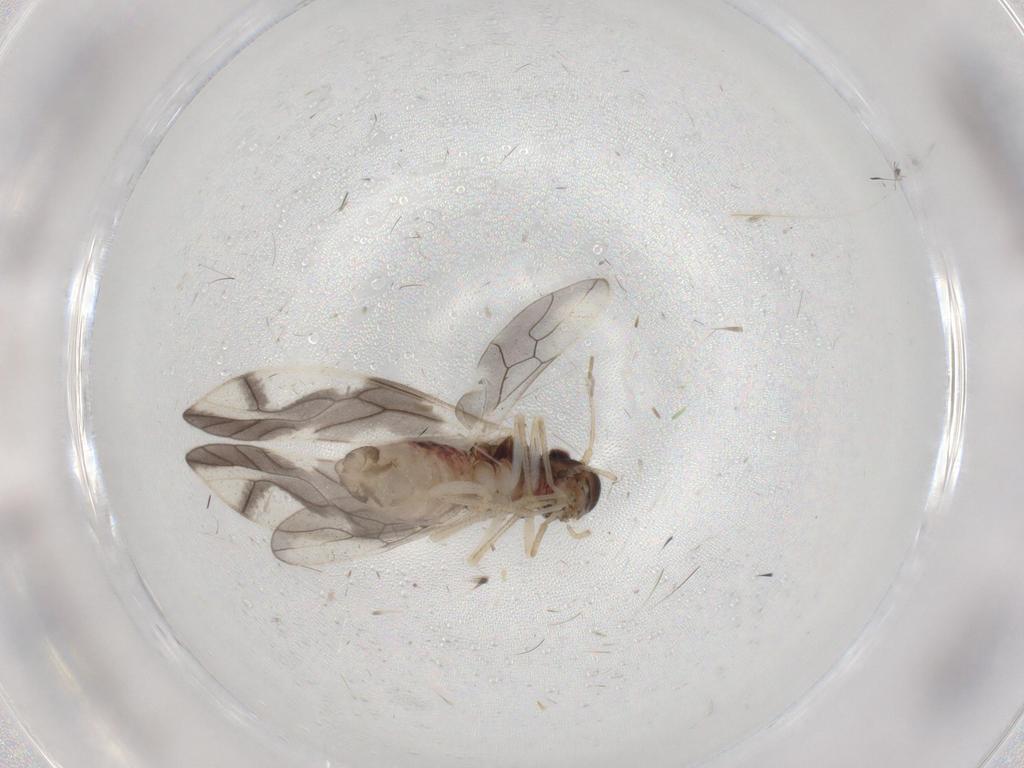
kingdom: Animalia
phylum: Arthropoda
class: Insecta
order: Psocodea
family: Caeciliusidae
